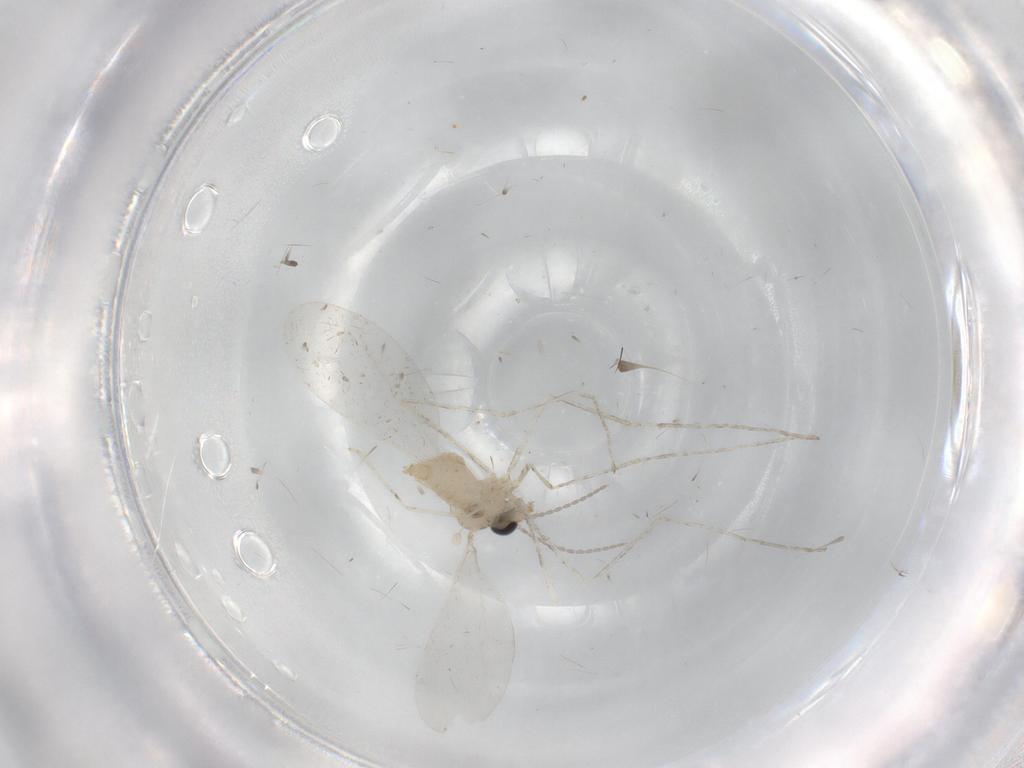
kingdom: Animalia
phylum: Arthropoda
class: Insecta
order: Diptera
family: Cecidomyiidae
